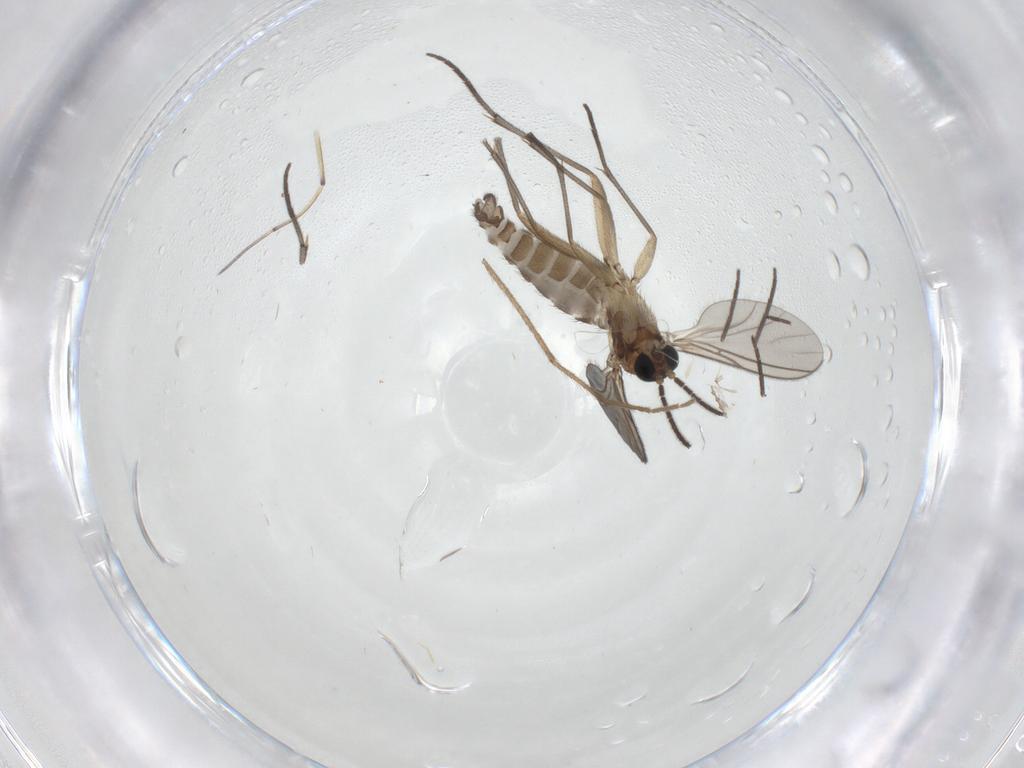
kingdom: Animalia
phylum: Arthropoda
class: Insecta
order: Diptera
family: Sciaridae
